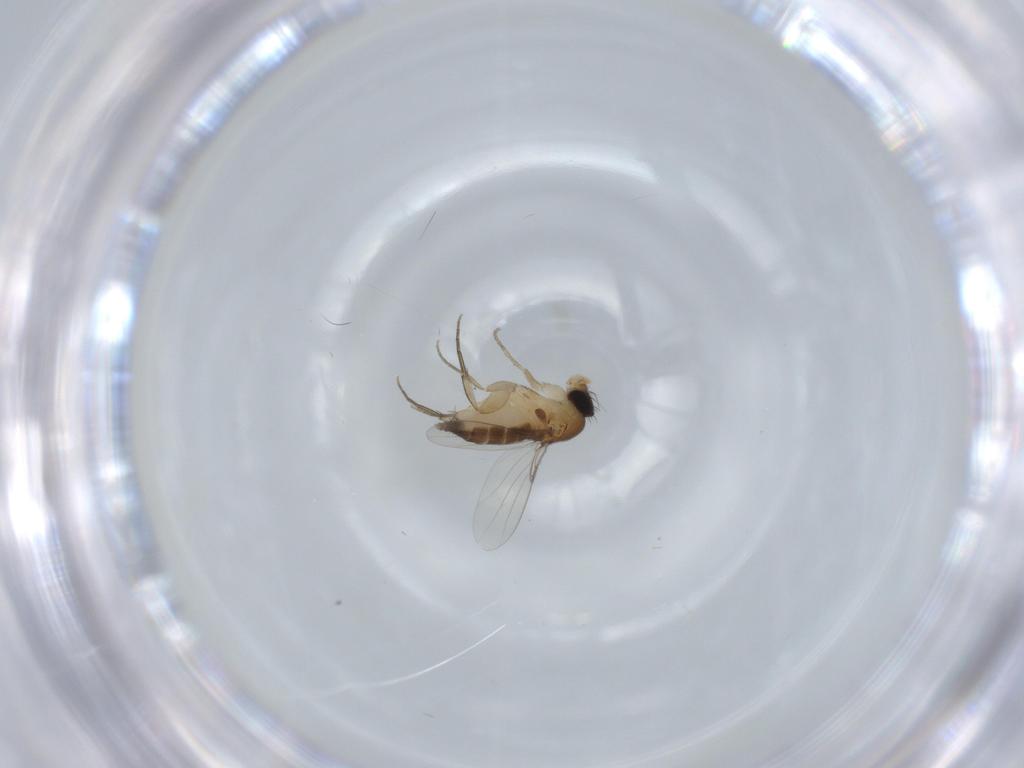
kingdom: Animalia
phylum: Arthropoda
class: Insecta
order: Diptera
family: Phoridae
